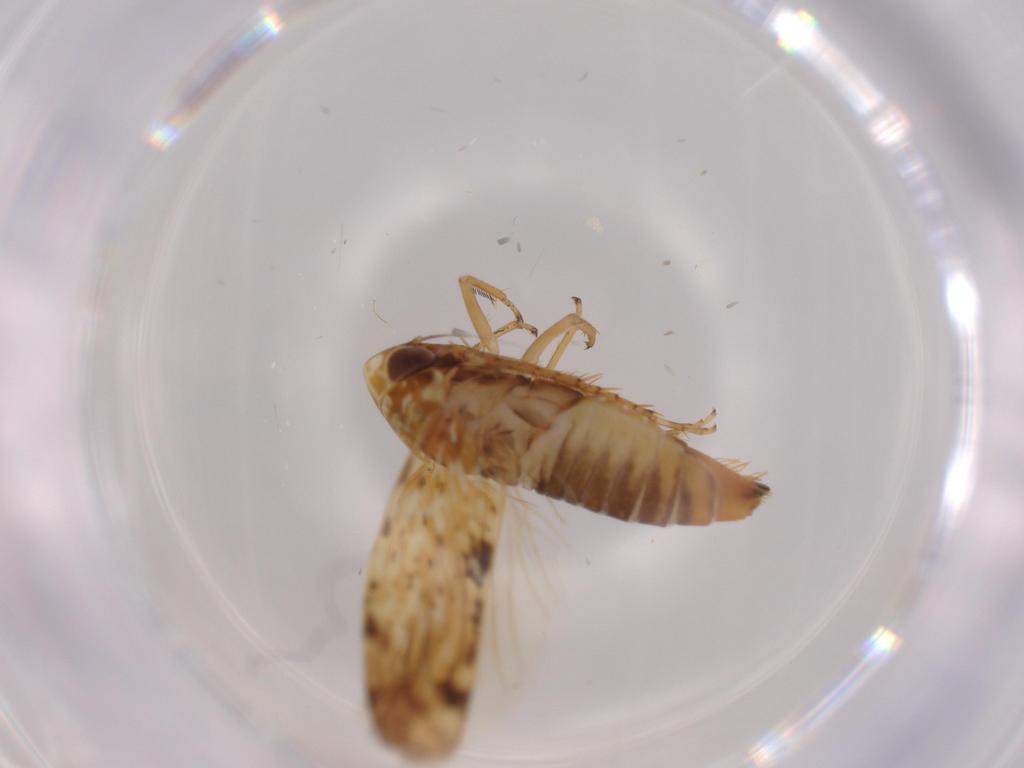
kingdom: Animalia
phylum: Arthropoda
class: Insecta
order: Hemiptera
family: Cicadellidae
